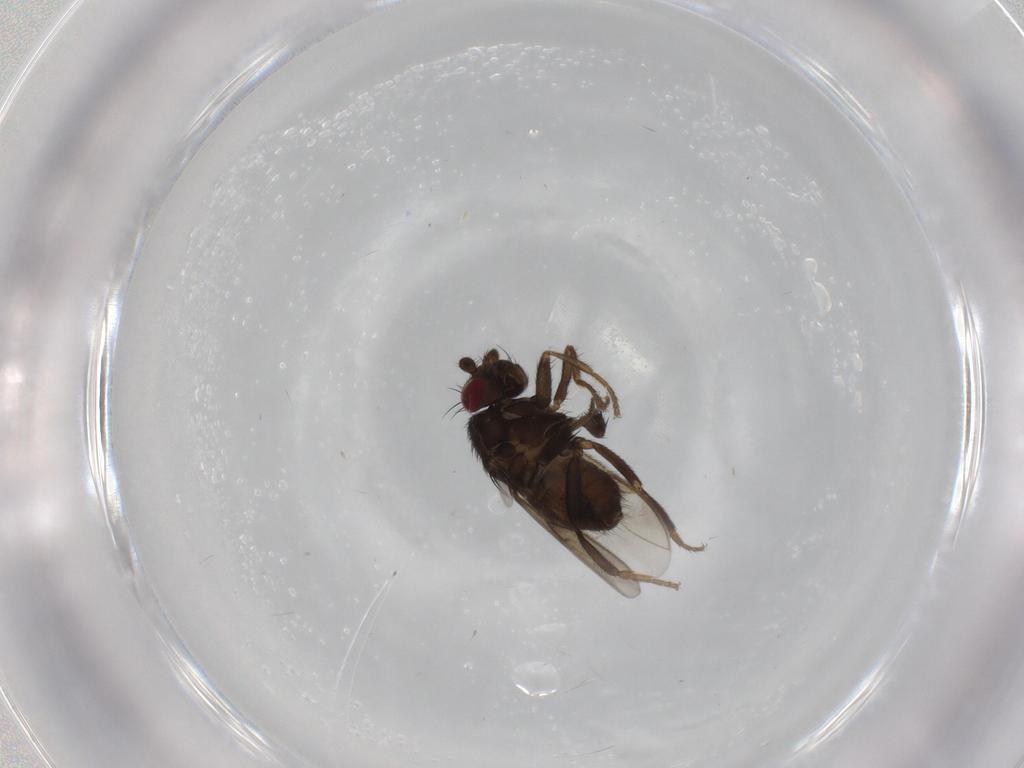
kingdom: Animalia
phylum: Arthropoda
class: Insecta
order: Diptera
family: Sphaeroceridae
